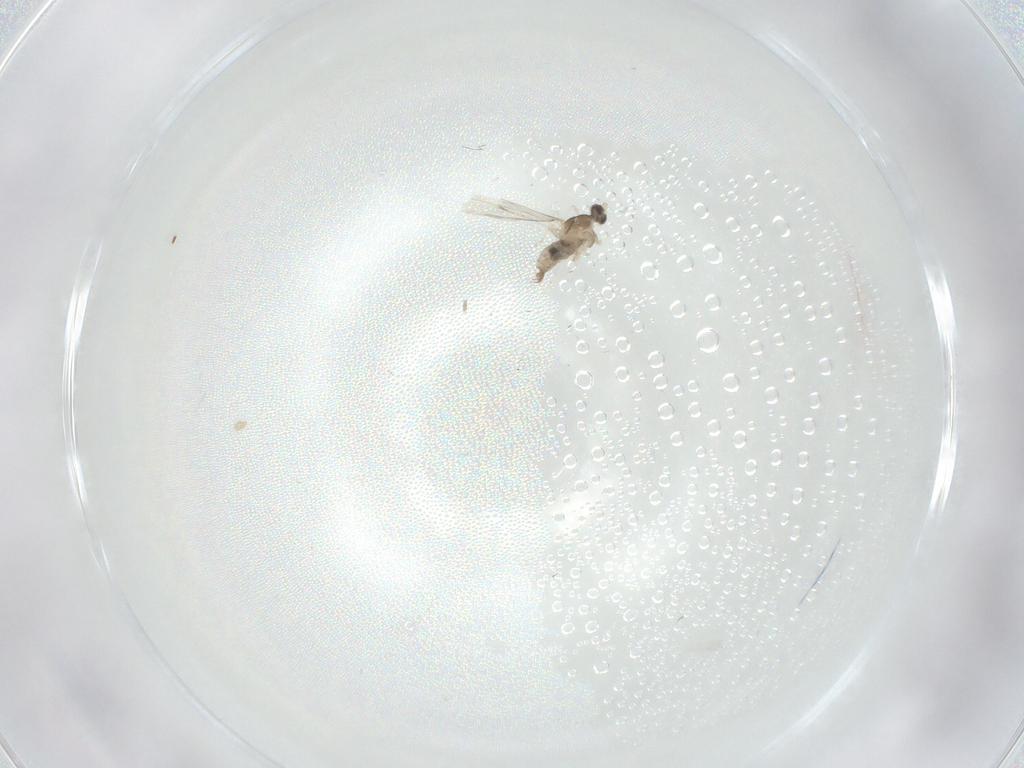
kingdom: Animalia
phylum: Arthropoda
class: Insecta
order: Diptera
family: Cecidomyiidae
